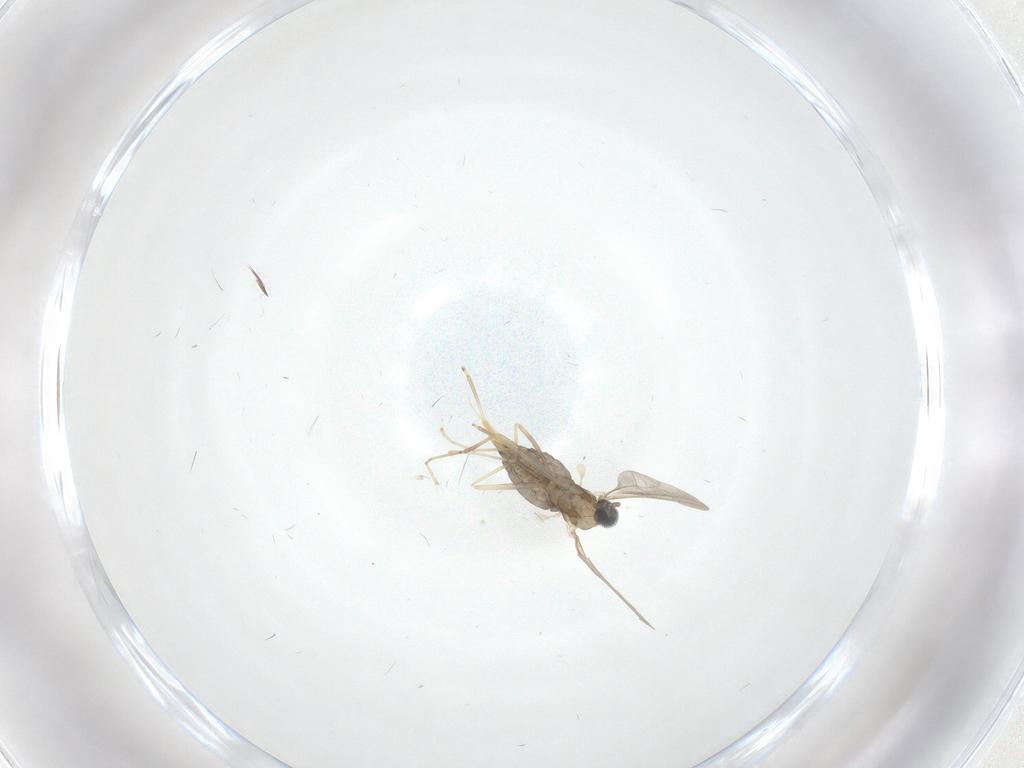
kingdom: Animalia
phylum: Arthropoda
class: Insecta
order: Diptera
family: Cecidomyiidae
